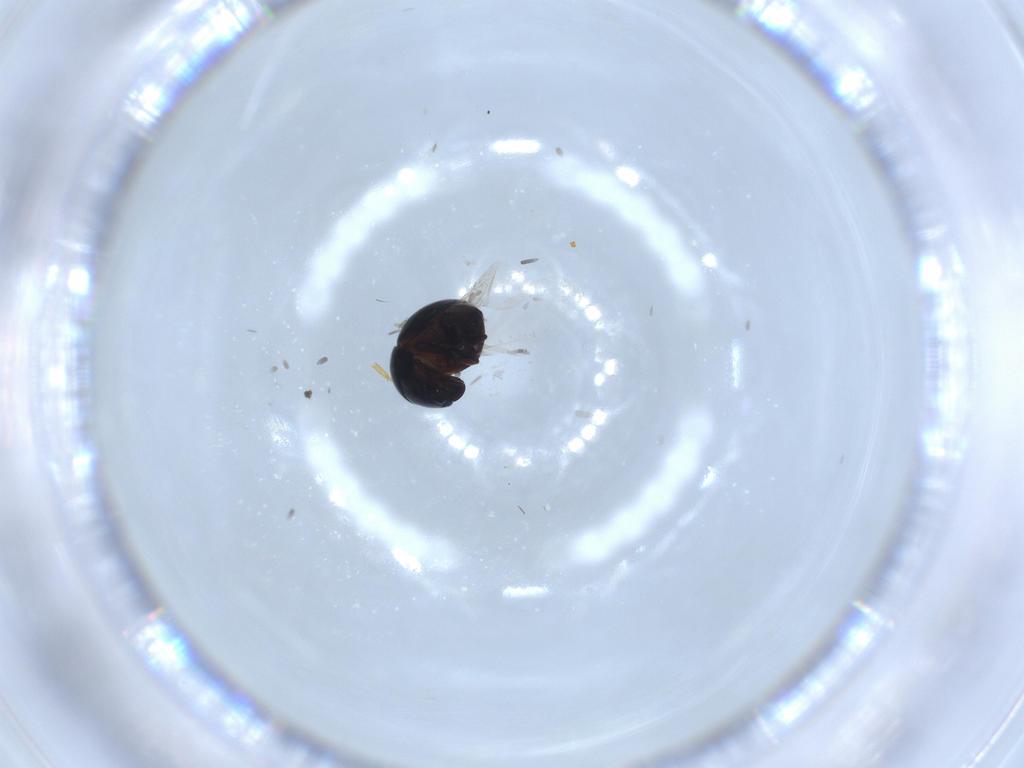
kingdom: Animalia
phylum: Arthropoda
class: Insecta
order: Coleoptera
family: Cybocephalidae
